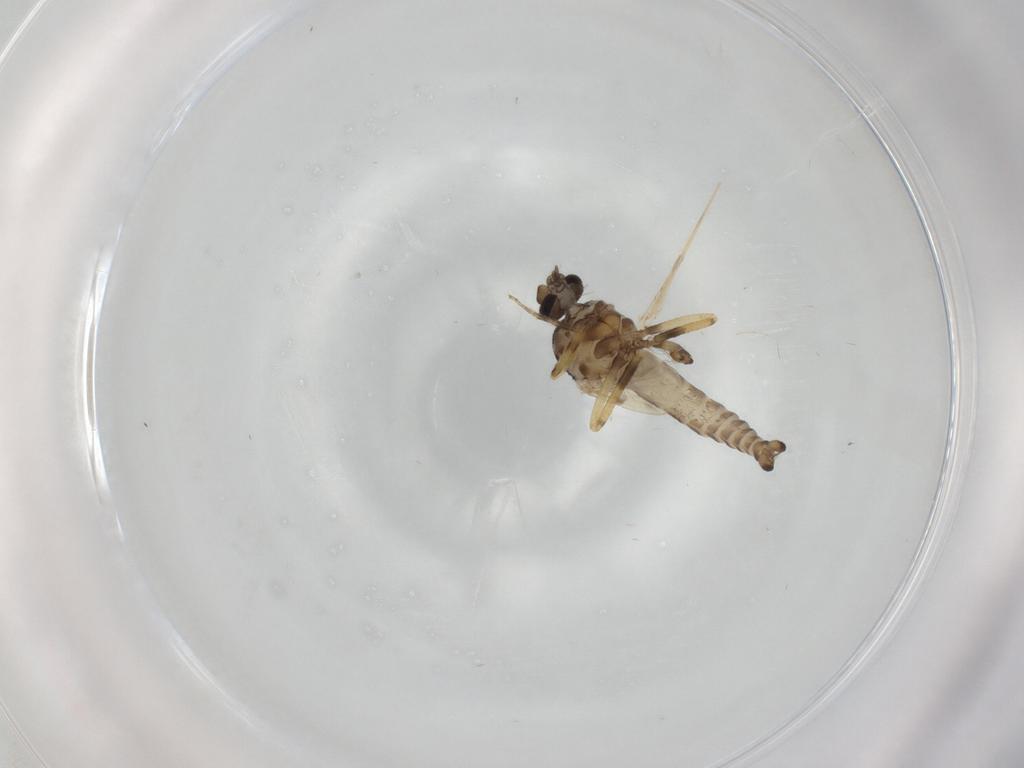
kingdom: Animalia
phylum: Arthropoda
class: Insecta
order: Diptera
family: Ceratopogonidae
